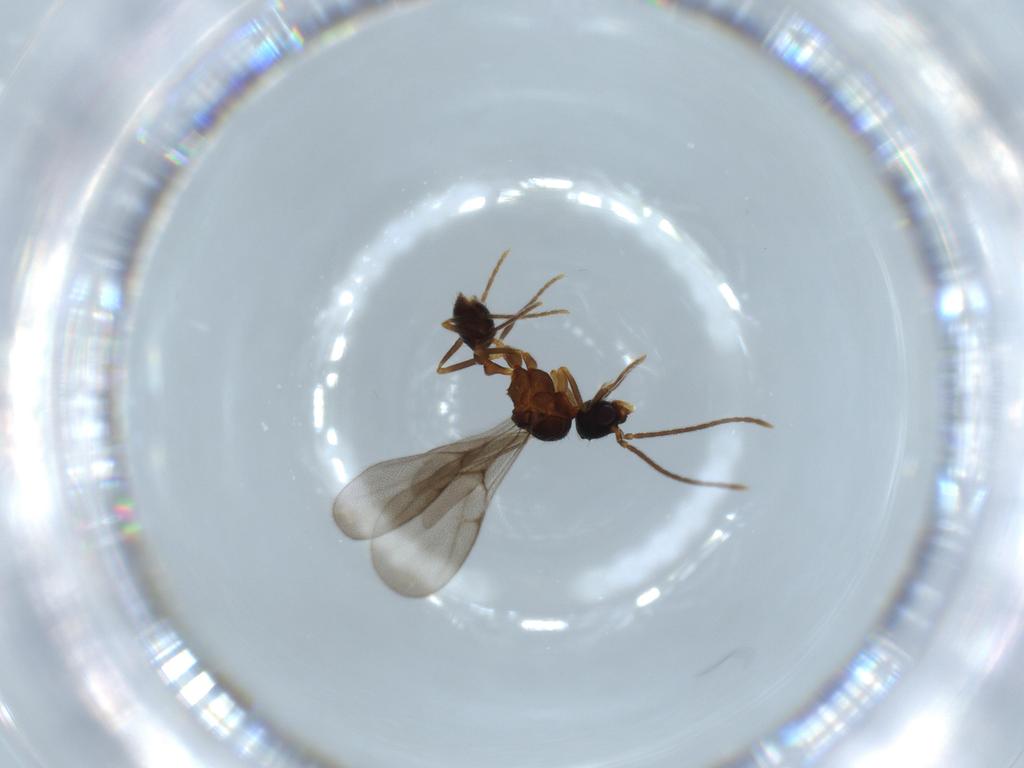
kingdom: Animalia
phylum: Arthropoda
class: Insecta
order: Hymenoptera
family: Formicidae
